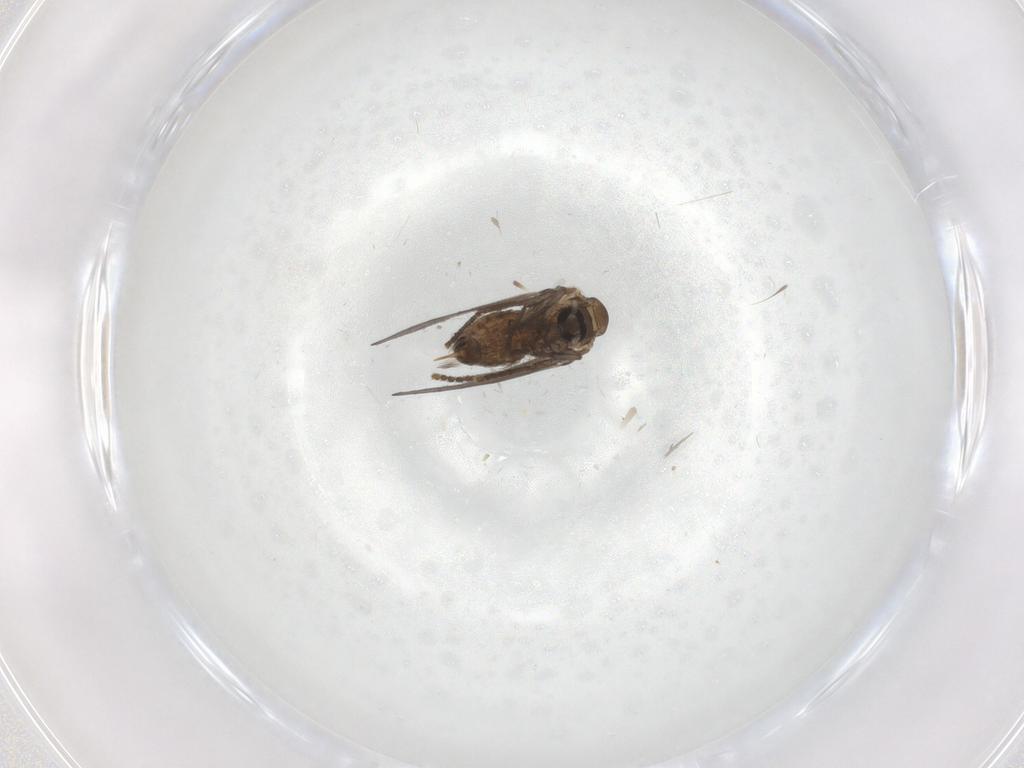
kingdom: Animalia
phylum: Arthropoda
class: Insecta
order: Diptera
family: Psychodidae
